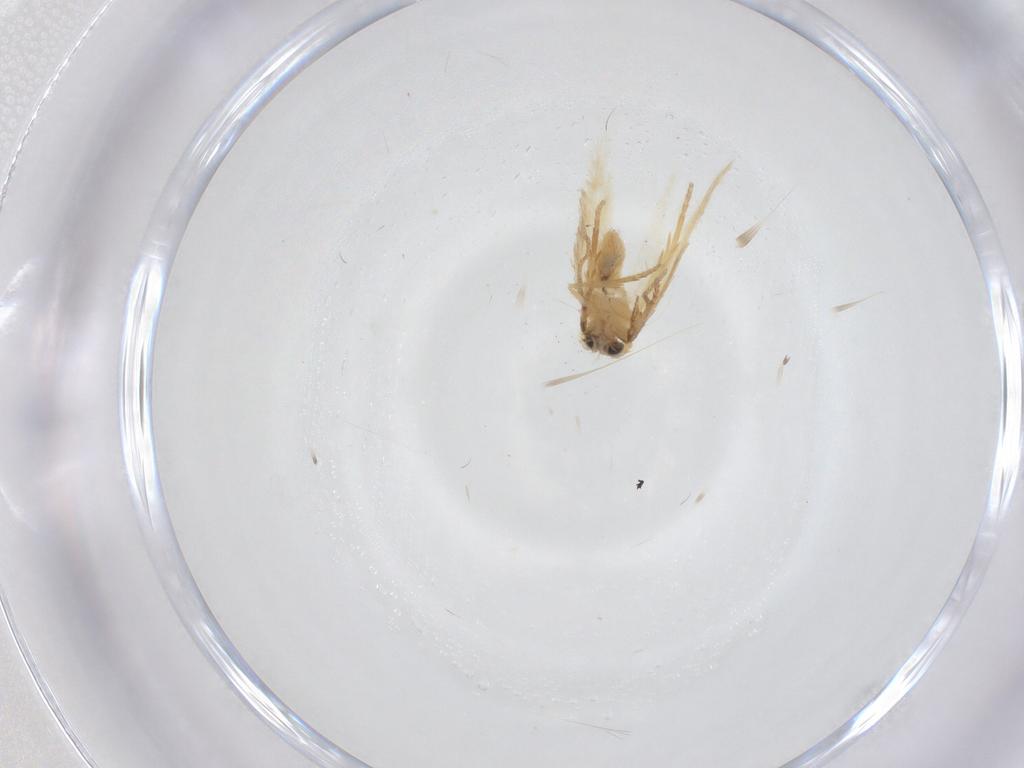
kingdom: Animalia
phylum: Arthropoda
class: Insecta
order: Lepidoptera
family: Nepticulidae
